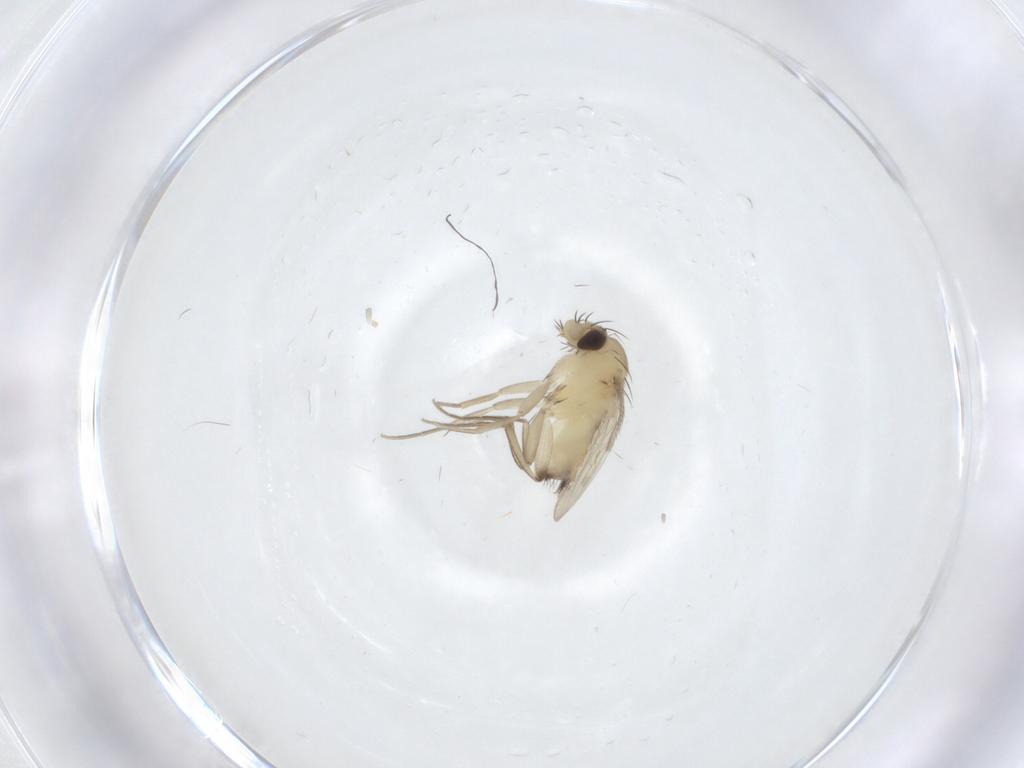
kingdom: Animalia
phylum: Arthropoda
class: Insecta
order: Diptera
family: Phoridae
